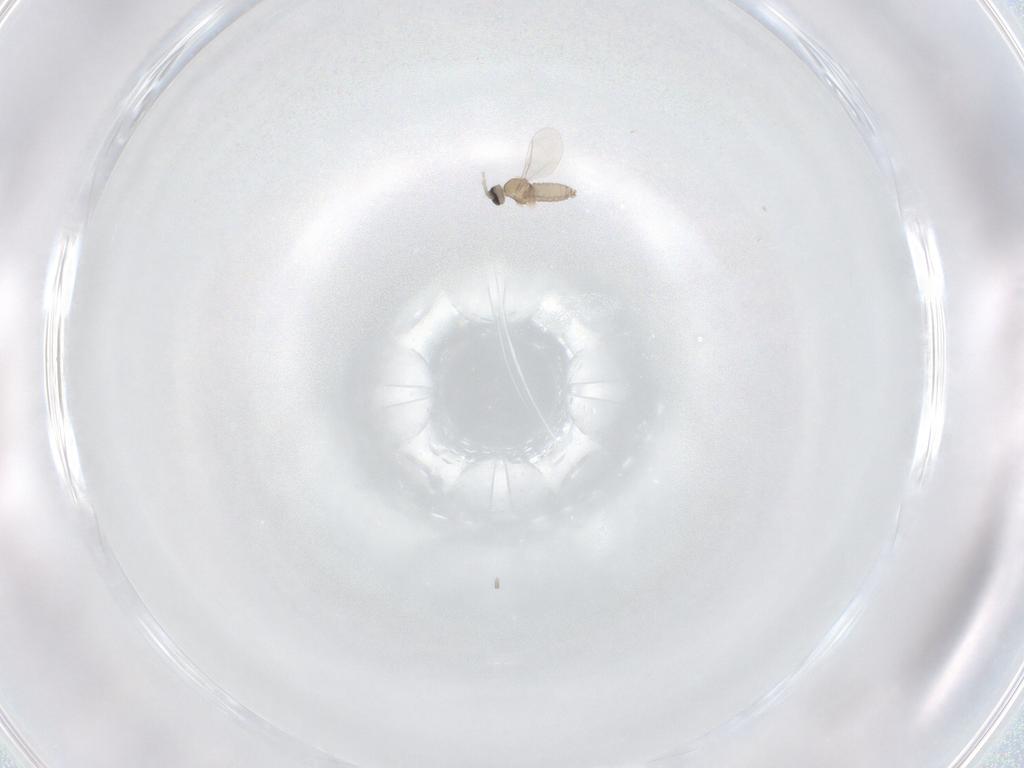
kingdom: Animalia
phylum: Arthropoda
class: Insecta
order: Diptera
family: Cecidomyiidae
